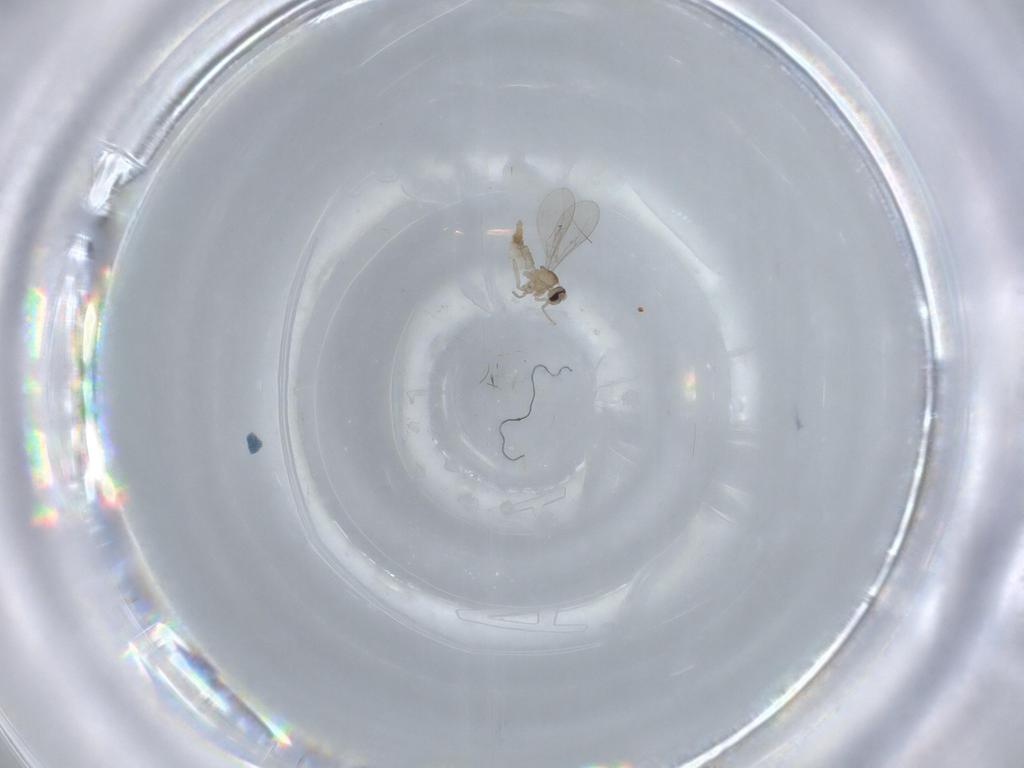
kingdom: Animalia
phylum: Arthropoda
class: Insecta
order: Diptera
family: Cecidomyiidae
